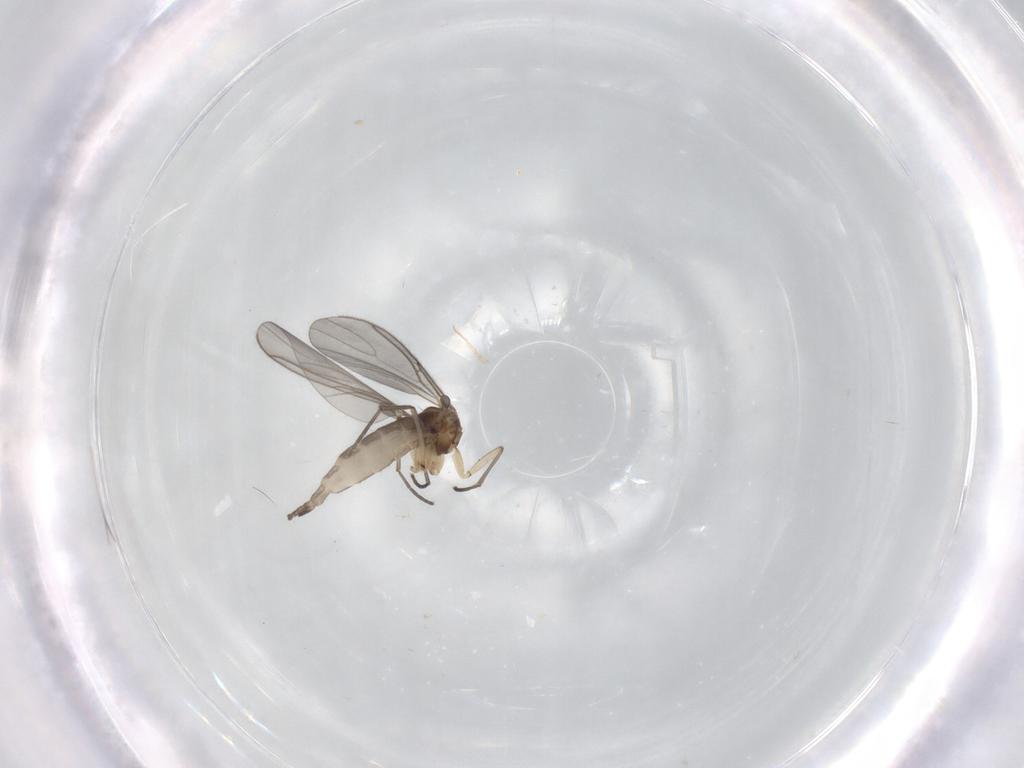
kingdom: Animalia
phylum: Arthropoda
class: Insecta
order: Diptera
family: Sciaridae
